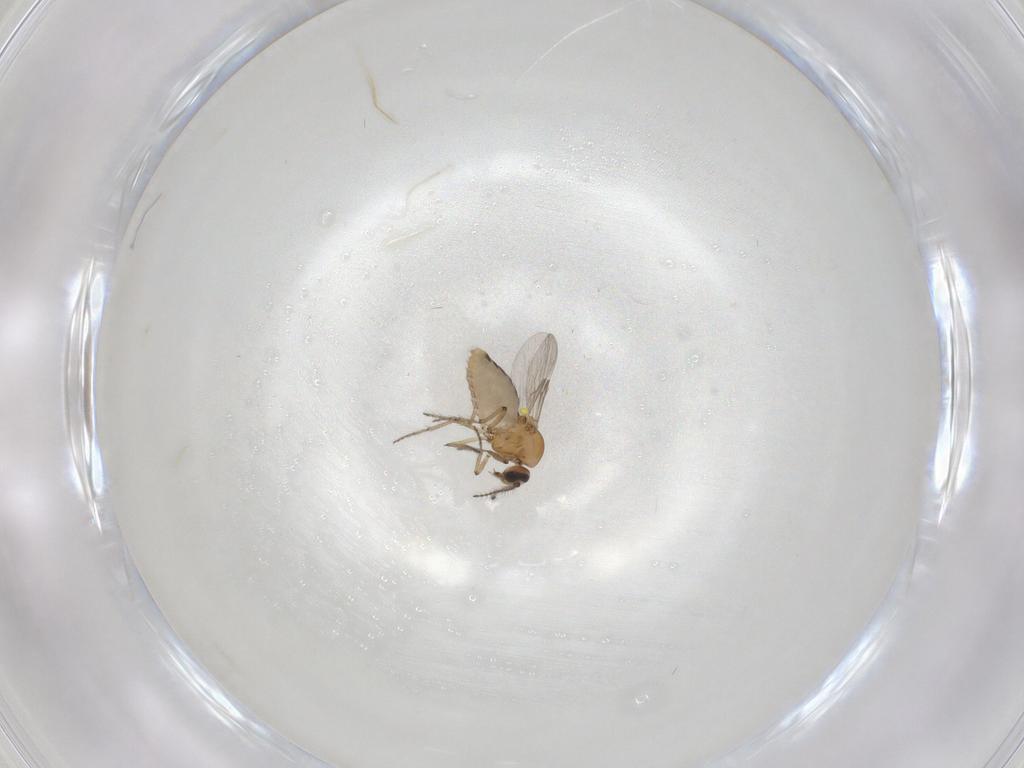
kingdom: Animalia
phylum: Arthropoda
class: Insecta
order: Diptera
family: Ceratopogonidae
